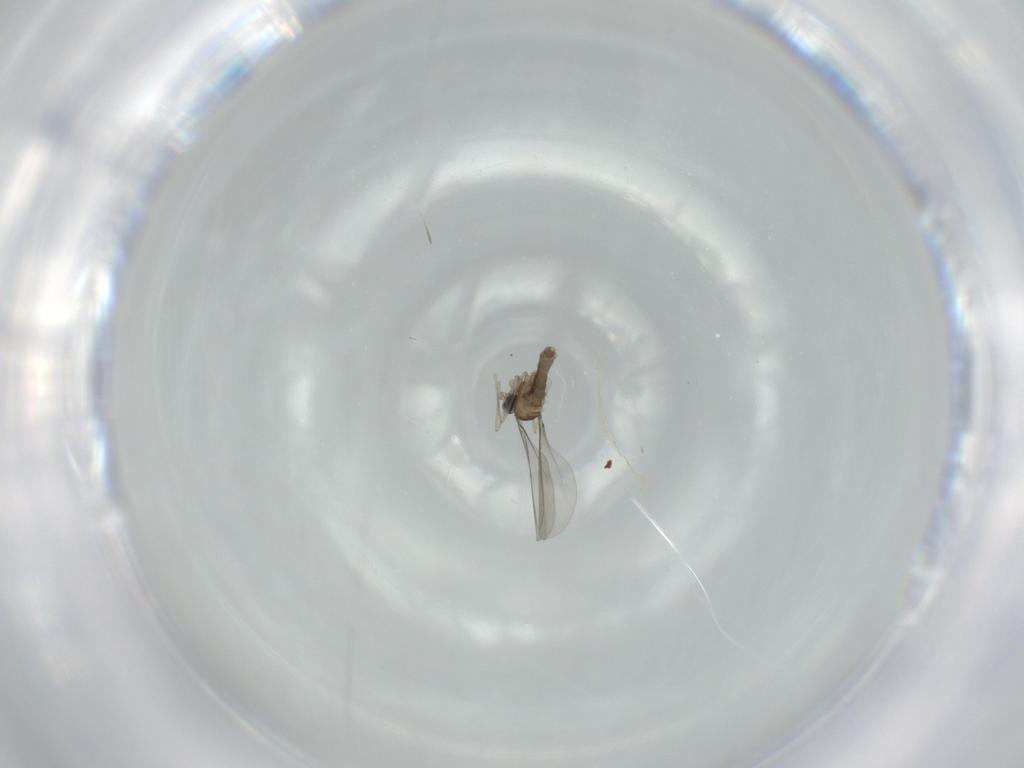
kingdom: Animalia
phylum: Arthropoda
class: Insecta
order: Diptera
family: Cecidomyiidae
